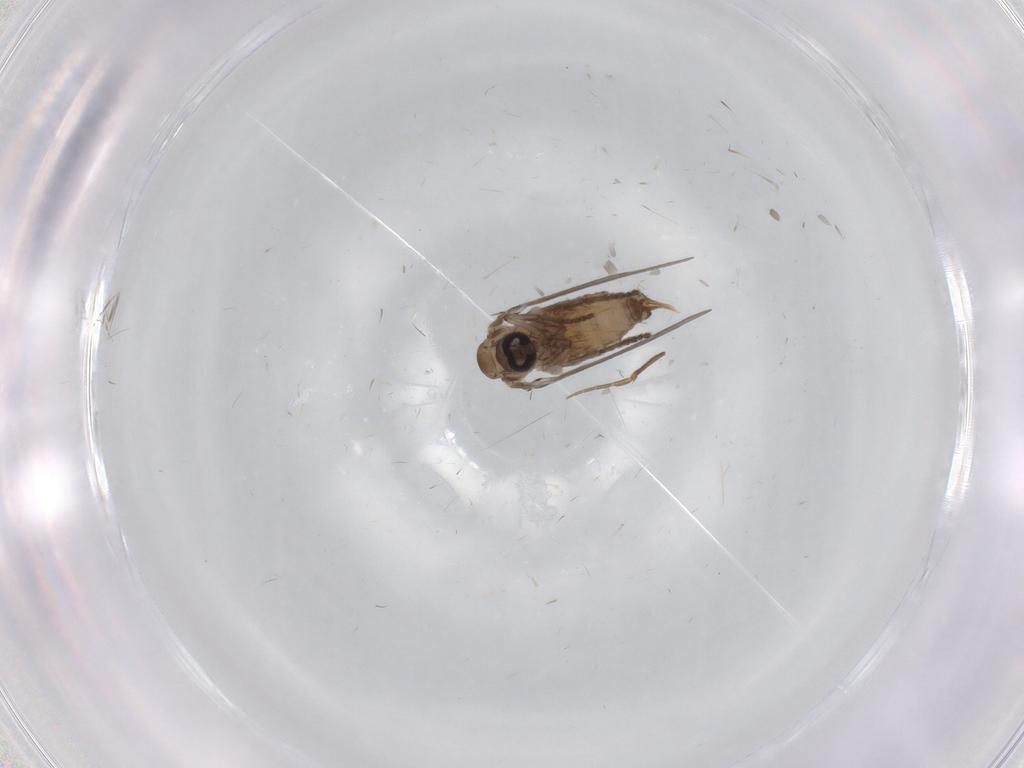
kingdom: Animalia
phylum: Arthropoda
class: Insecta
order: Diptera
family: Psychodidae
